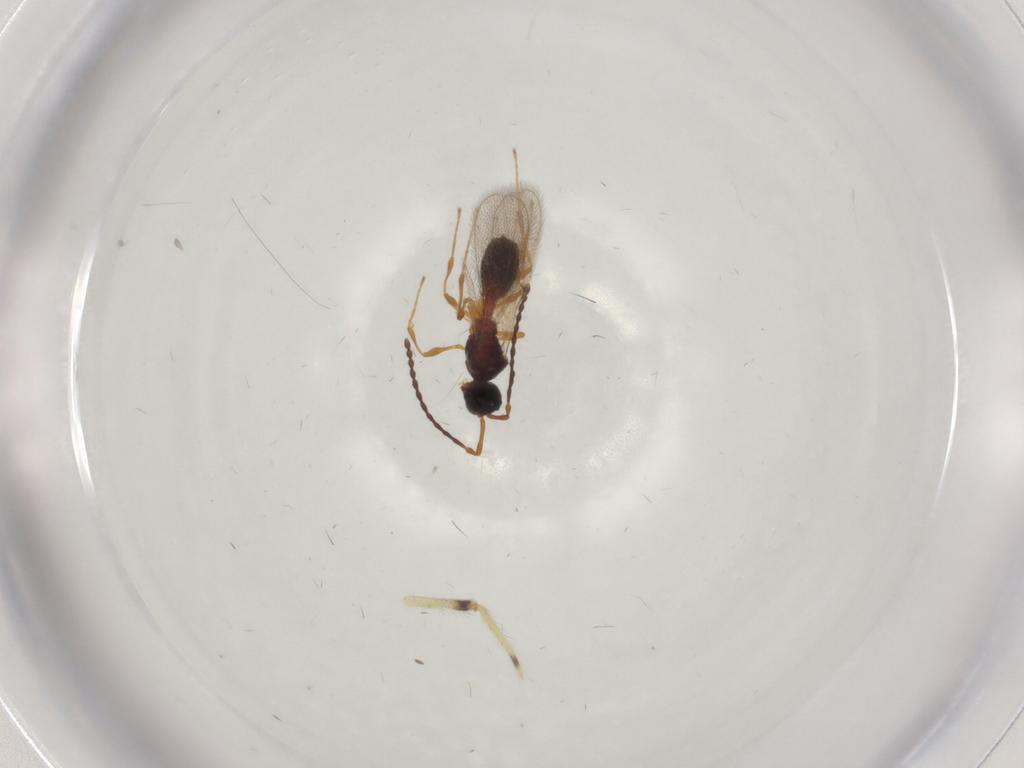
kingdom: Animalia
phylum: Arthropoda
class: Insecta
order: Hymenoptera
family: Diapriidae
